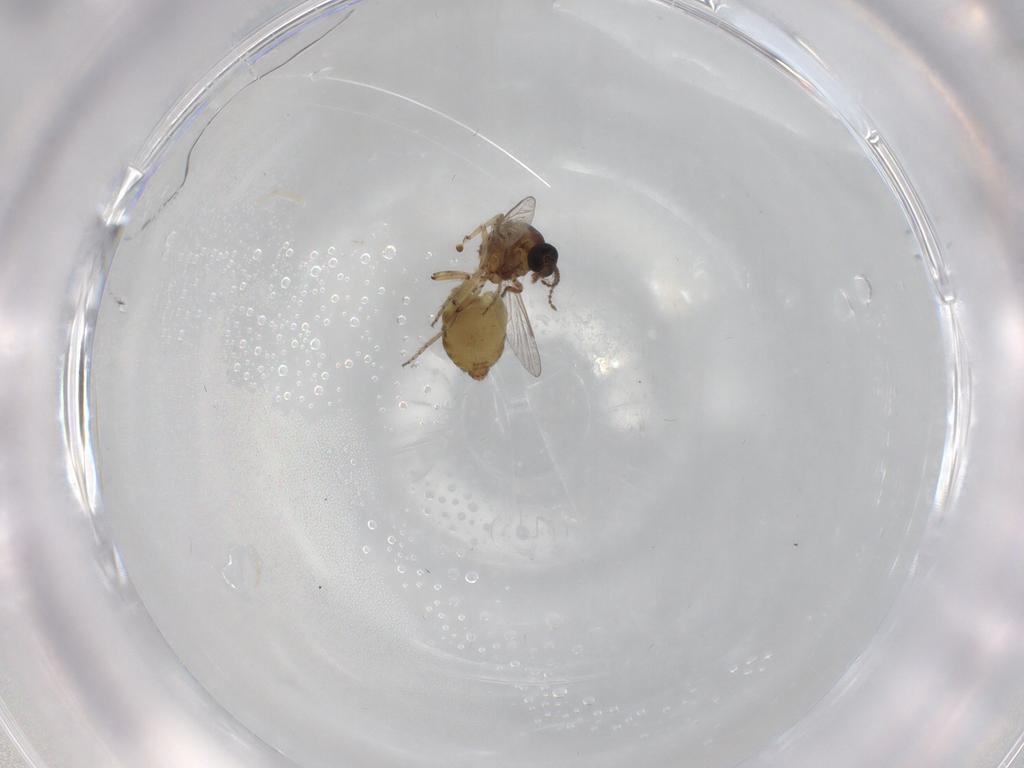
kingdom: Animalia
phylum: Arthropoda
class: Insecta
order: Diptera
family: Ceratopogonidae
